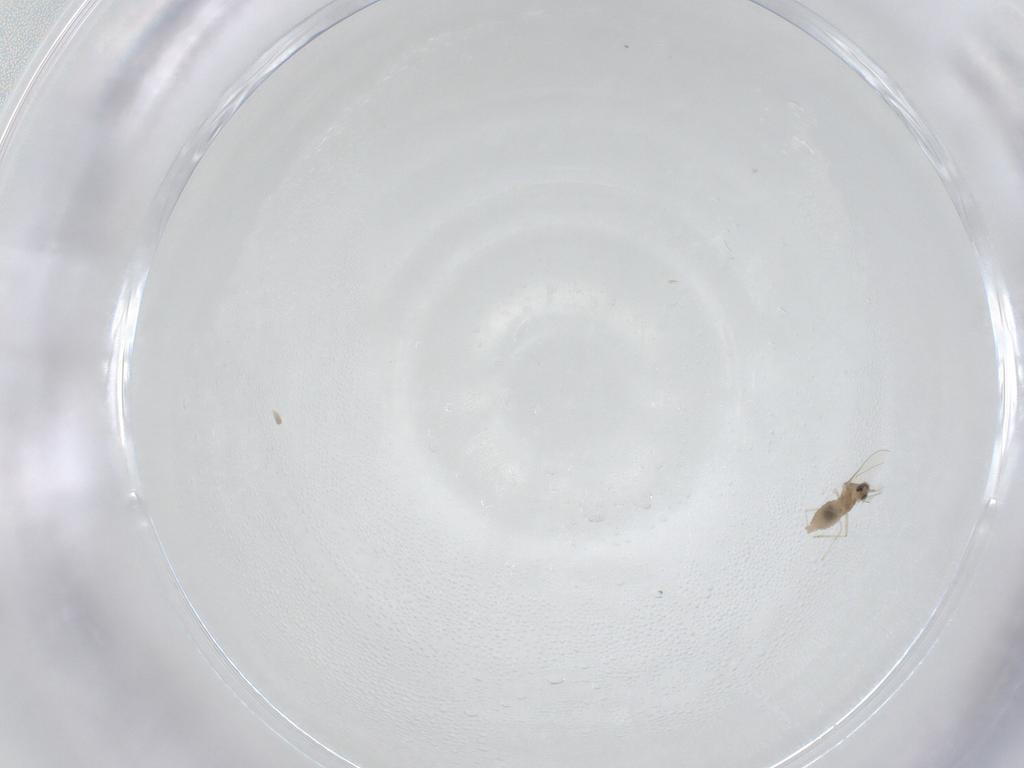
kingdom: Animalia
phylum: Arthropoda
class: Insecta
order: Diptera
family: Cecidomyiidae
